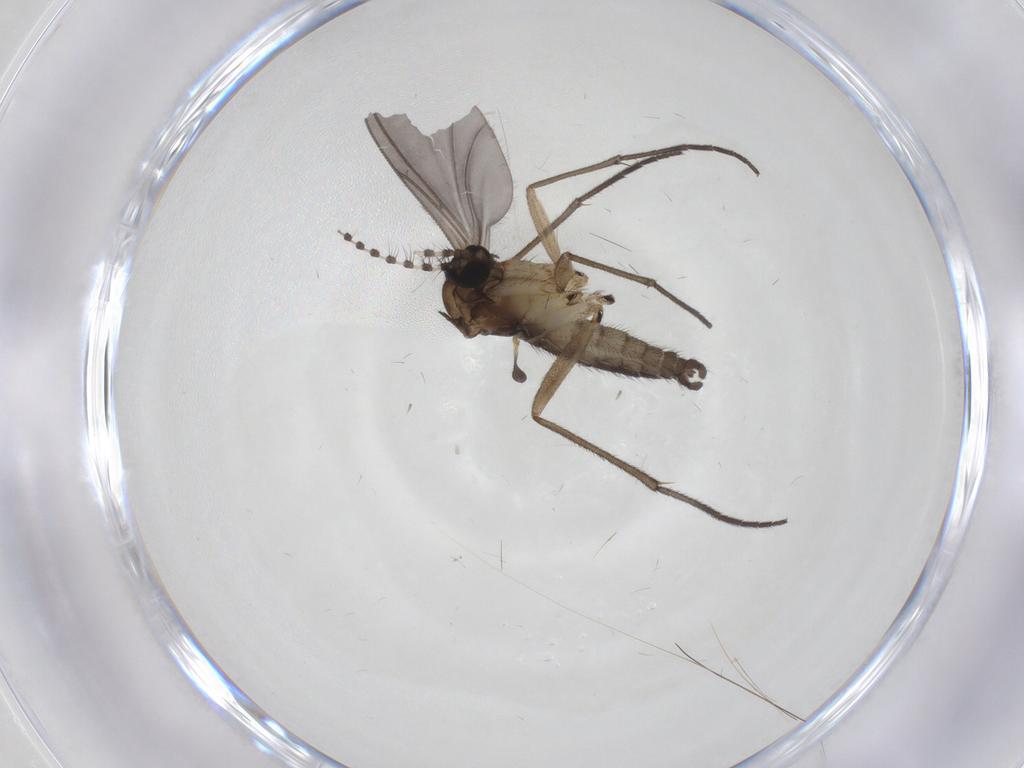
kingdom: Animalia
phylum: Arthropoda
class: Insecta
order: Diptera
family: Sciaridae
